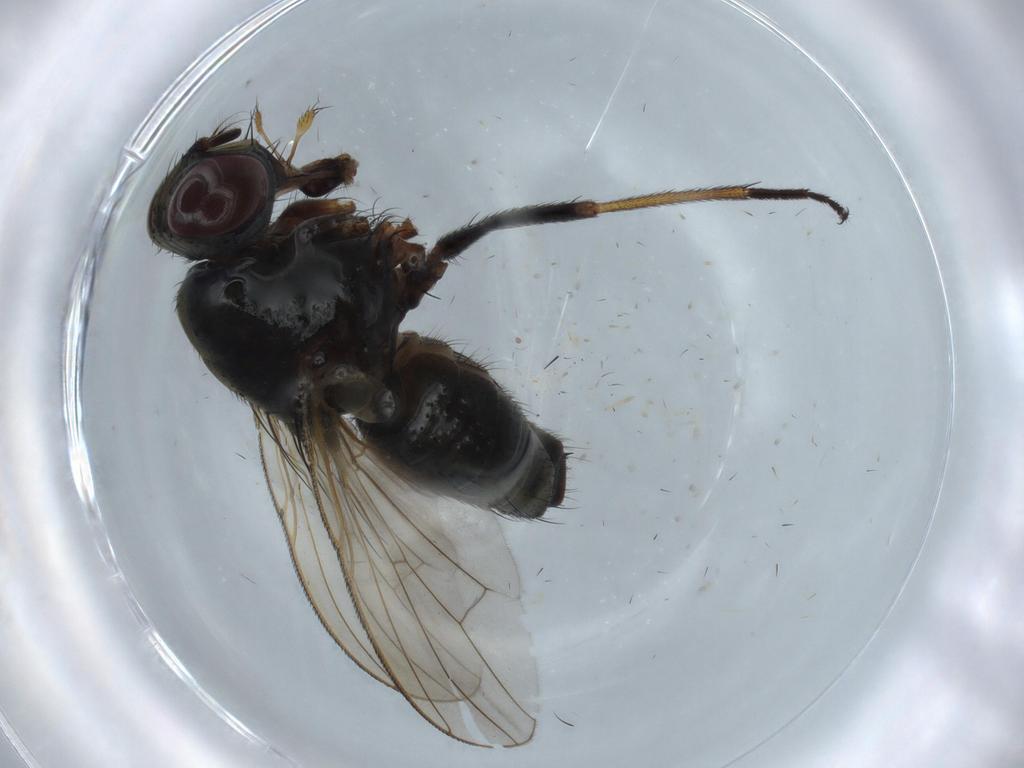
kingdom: Animalia
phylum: Arthropoda
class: Insecta
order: Diptera
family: Muscidae
